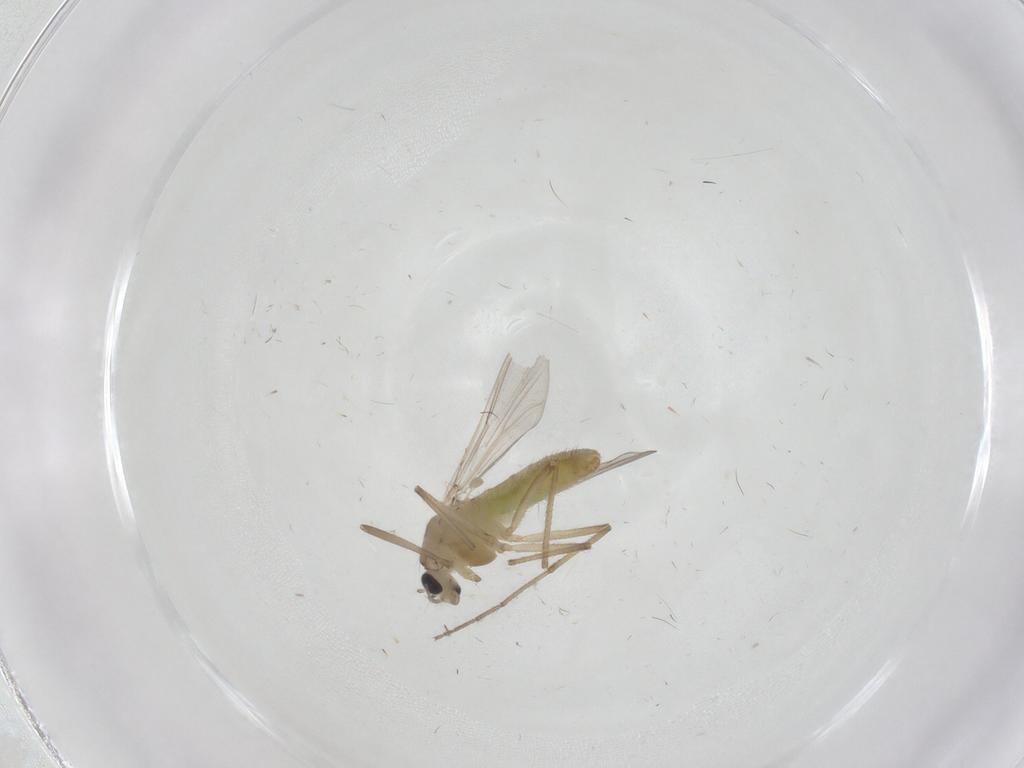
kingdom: Animalia
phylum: Arthropoda
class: Insecta
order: Diptera
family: Chironomidae
